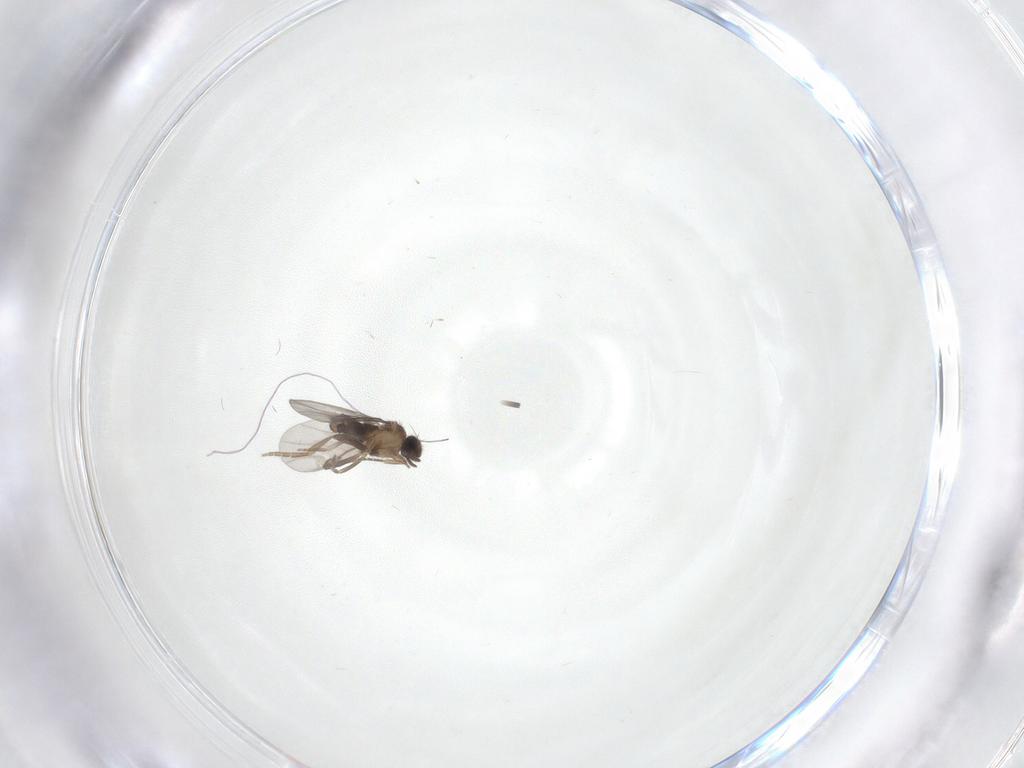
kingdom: Animalia
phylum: Arthropoda
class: Insecta
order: Diptera
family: Limoniidae
